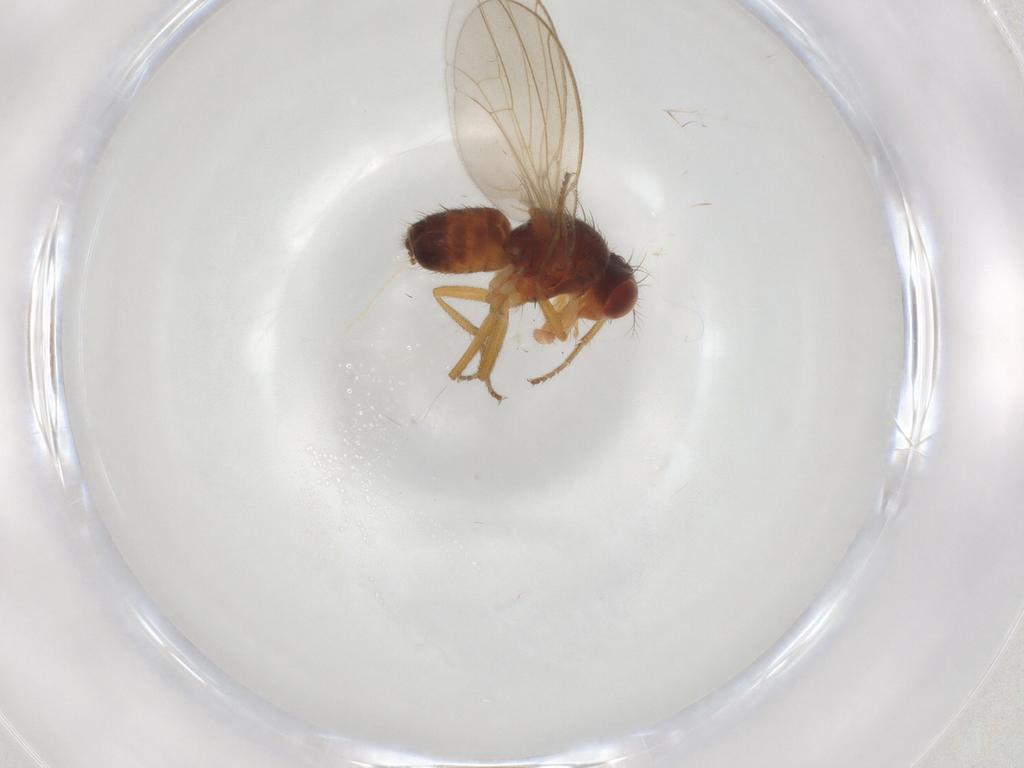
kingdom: Animalia
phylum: Arthropoda
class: Insecta
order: Diptera
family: Drosophilidae
